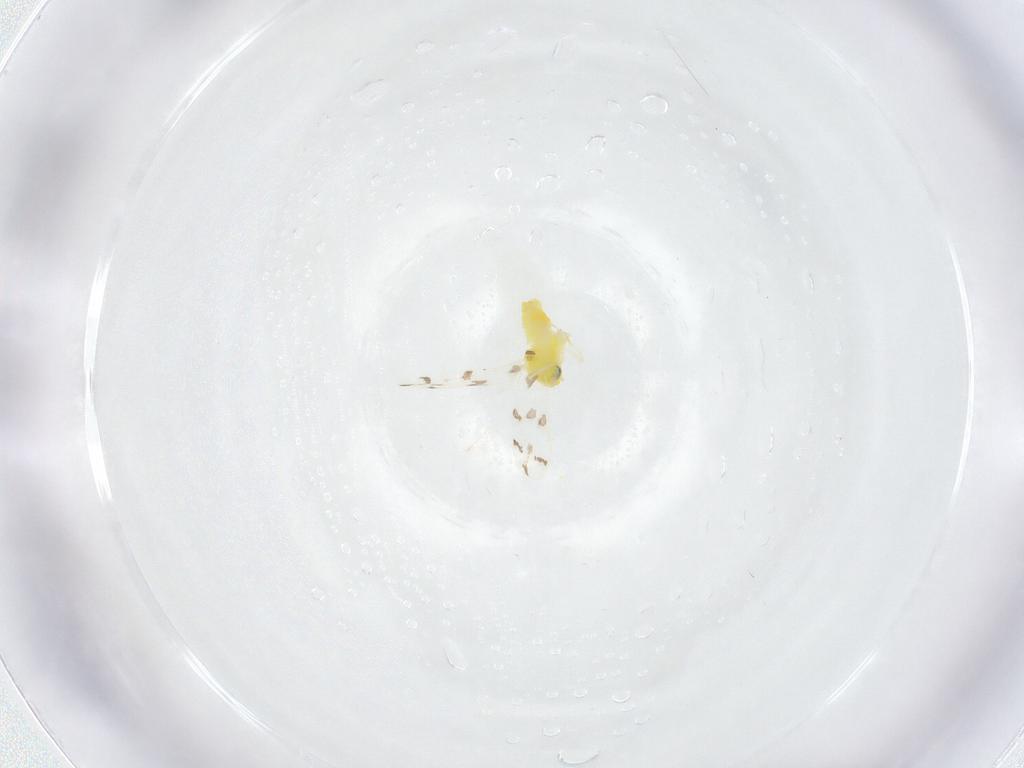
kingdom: Animalia
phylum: Arthropoda
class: Insecta
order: Hemiptera
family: Aleyrodidae
